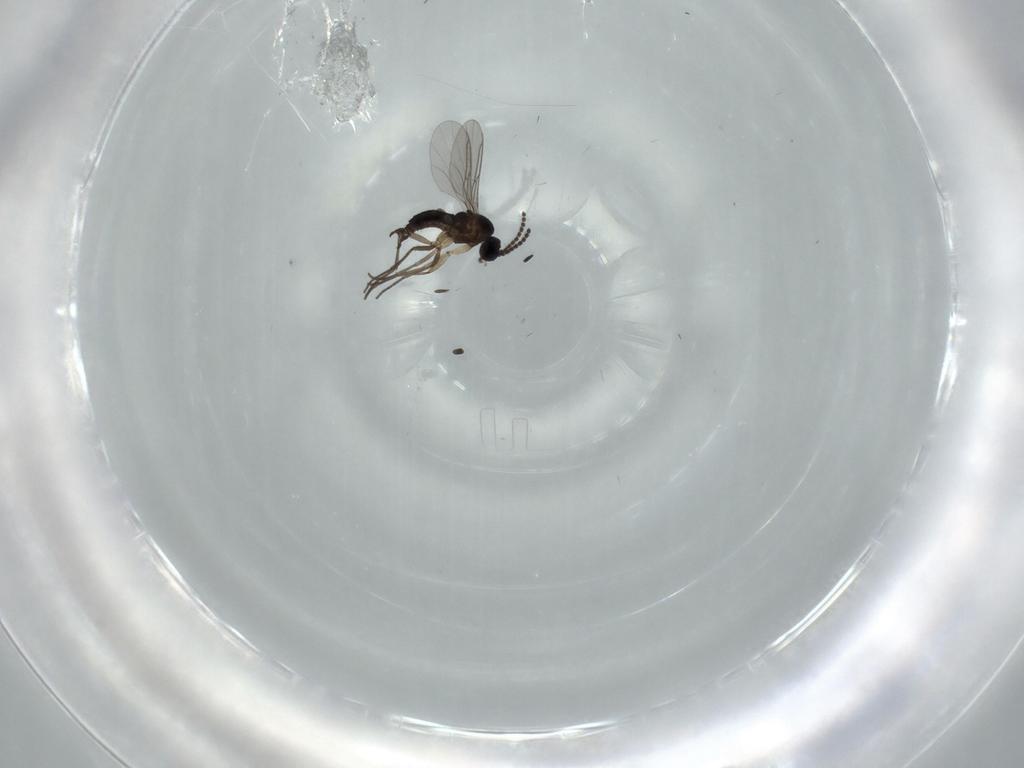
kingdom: Animalia
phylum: Arthropoda
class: Insecta
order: Diptera
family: Sciaridae
